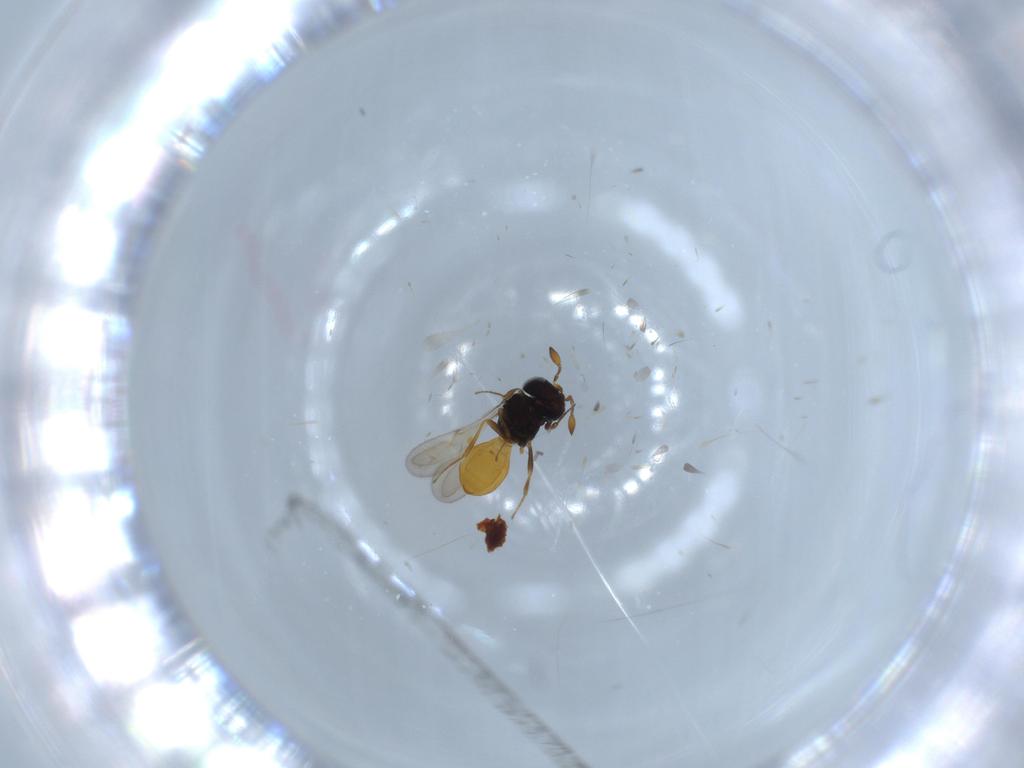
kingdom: Animalia
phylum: Arthropoda
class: Insecta
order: Hymenoptera
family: Scelionidae
